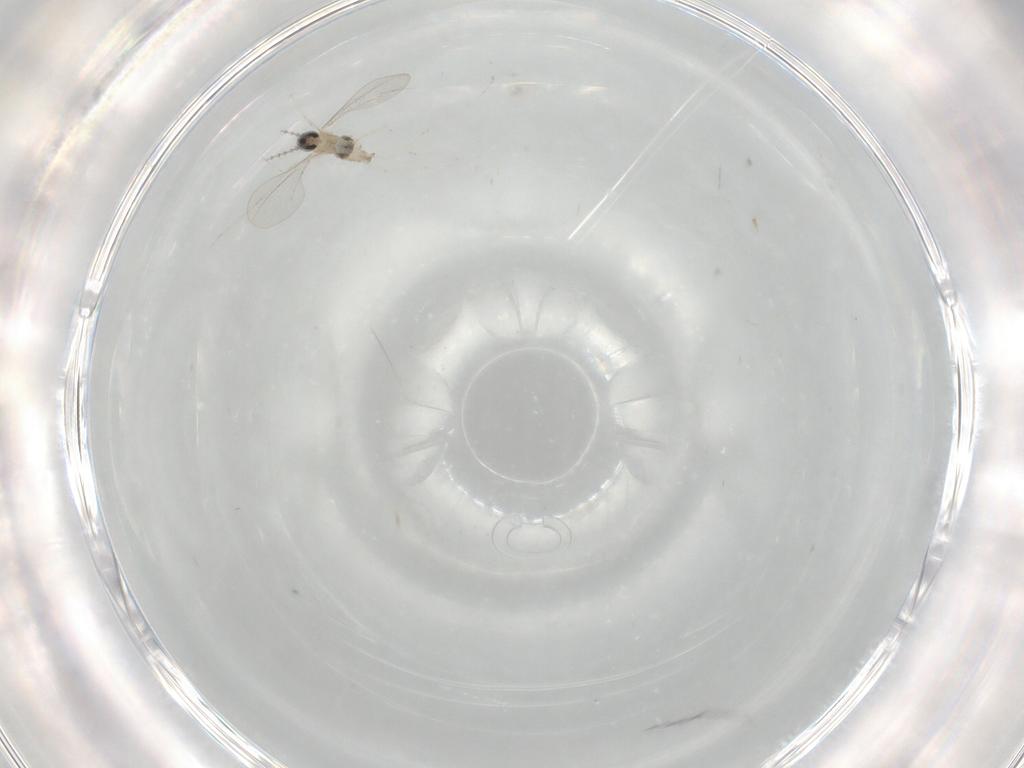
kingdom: Animalia
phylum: Arthropoda
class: Insecta
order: Diptera
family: Cecidomyiidae
